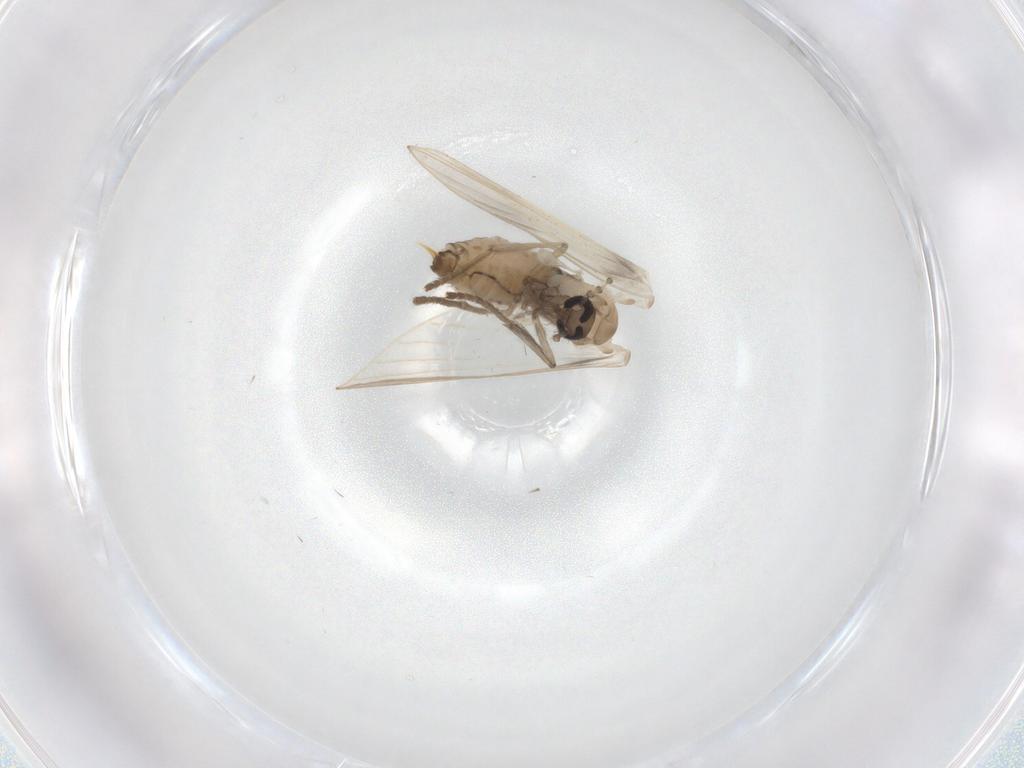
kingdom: Animalia
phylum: Arthropoda
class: Insecta
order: Diptera
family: Psychodidae
